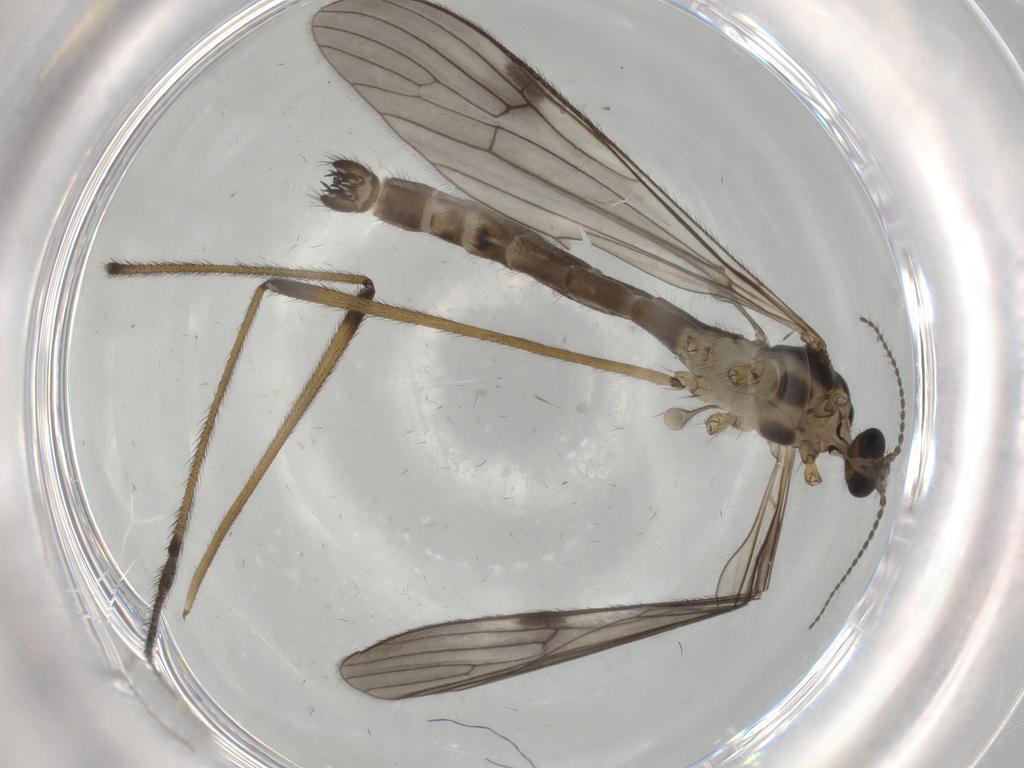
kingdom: Animalia
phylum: Arthropoda
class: Insecta
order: Diptera
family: Limoniidae
